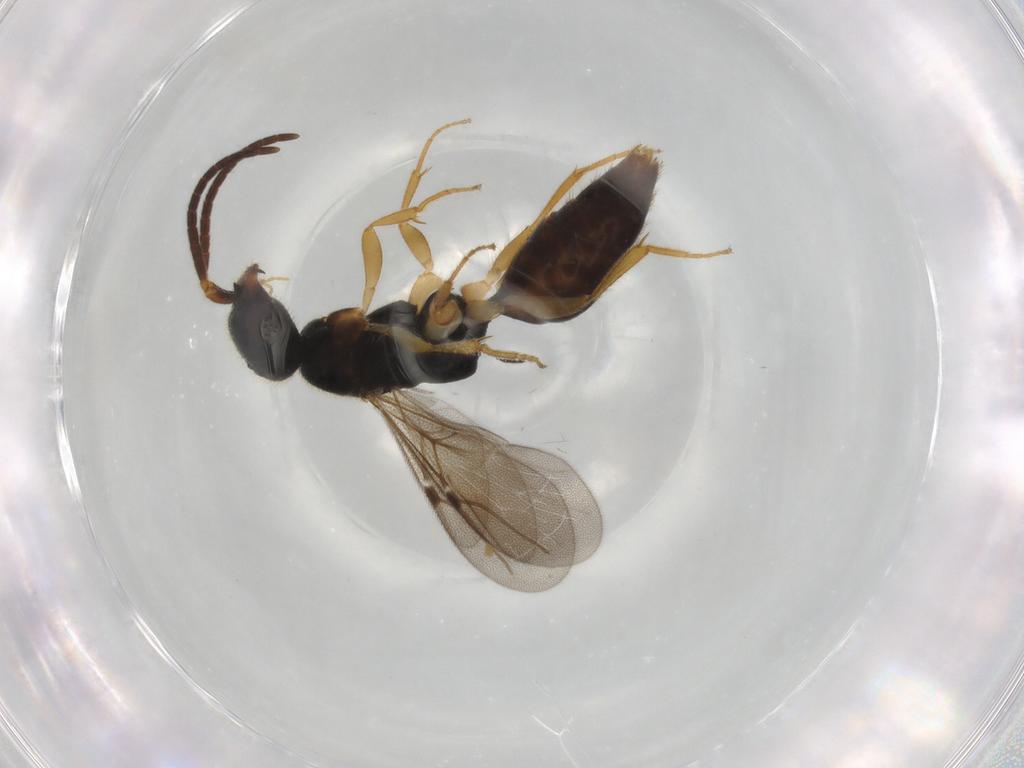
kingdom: Animalia
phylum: Arthropoda
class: Insecta
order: Hymenoptera
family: Bethylidae
